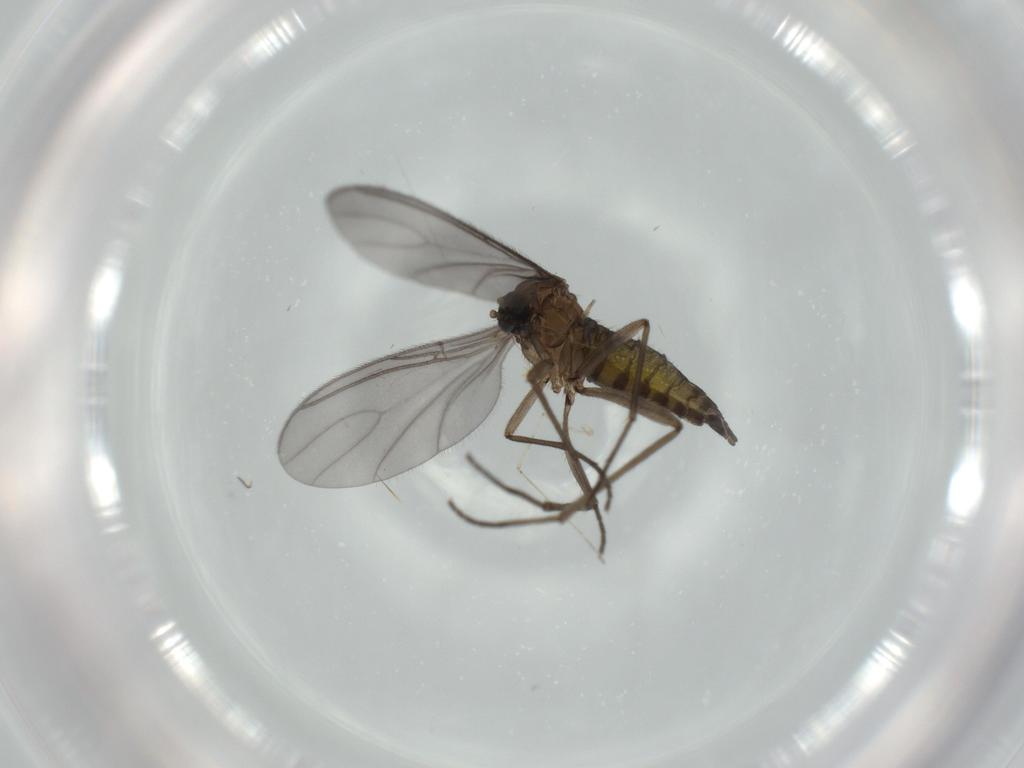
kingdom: Animalia
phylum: Arthropoda
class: Insecta
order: Diptera
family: Sciaridae
